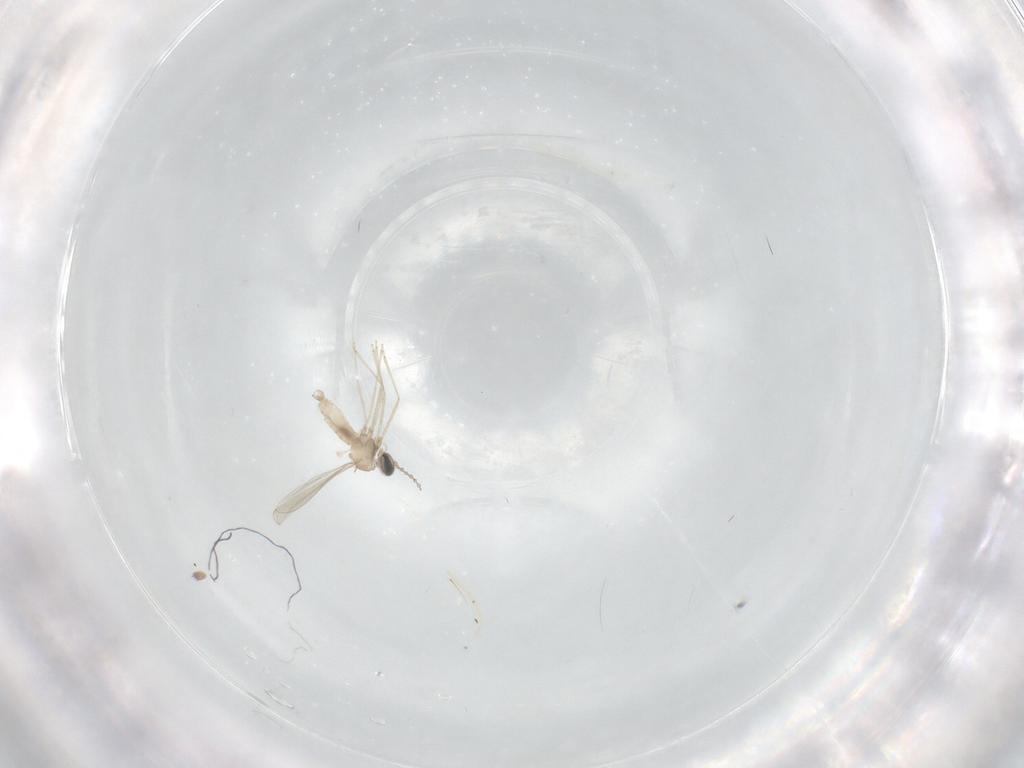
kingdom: Animalia
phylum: Arthropoda
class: Insecta
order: Diptera
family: Cecidomyiidae
